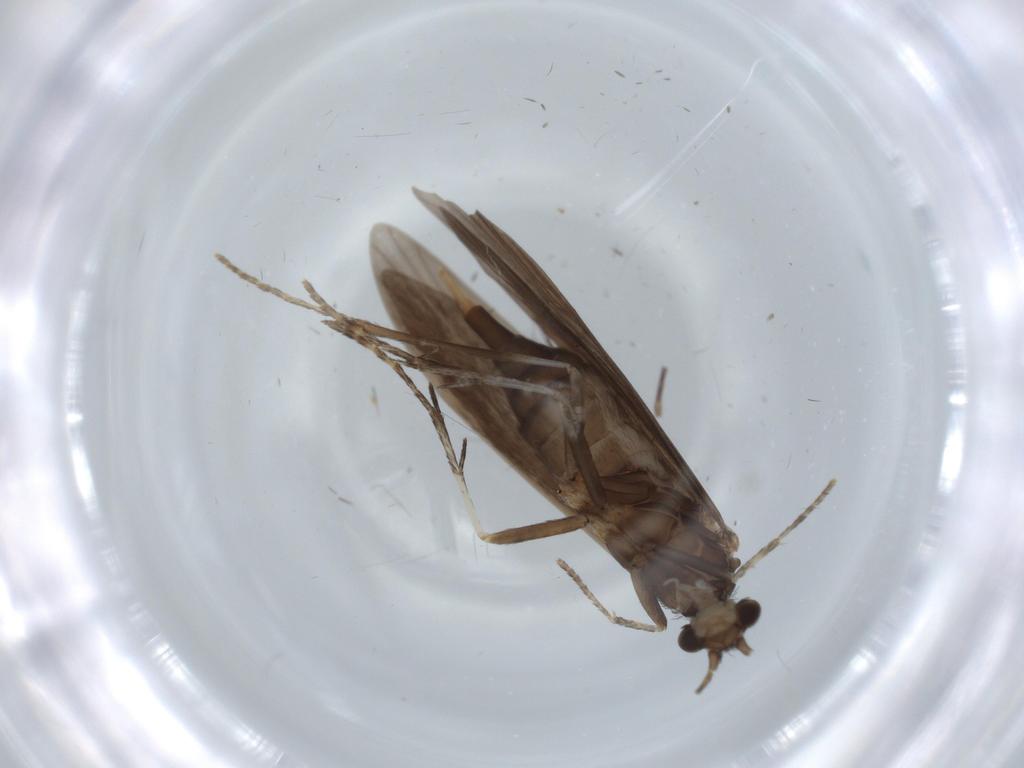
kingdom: Animalia
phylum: Arthropoda
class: Insecta
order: Trichoptera
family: Xiphocentronidae
